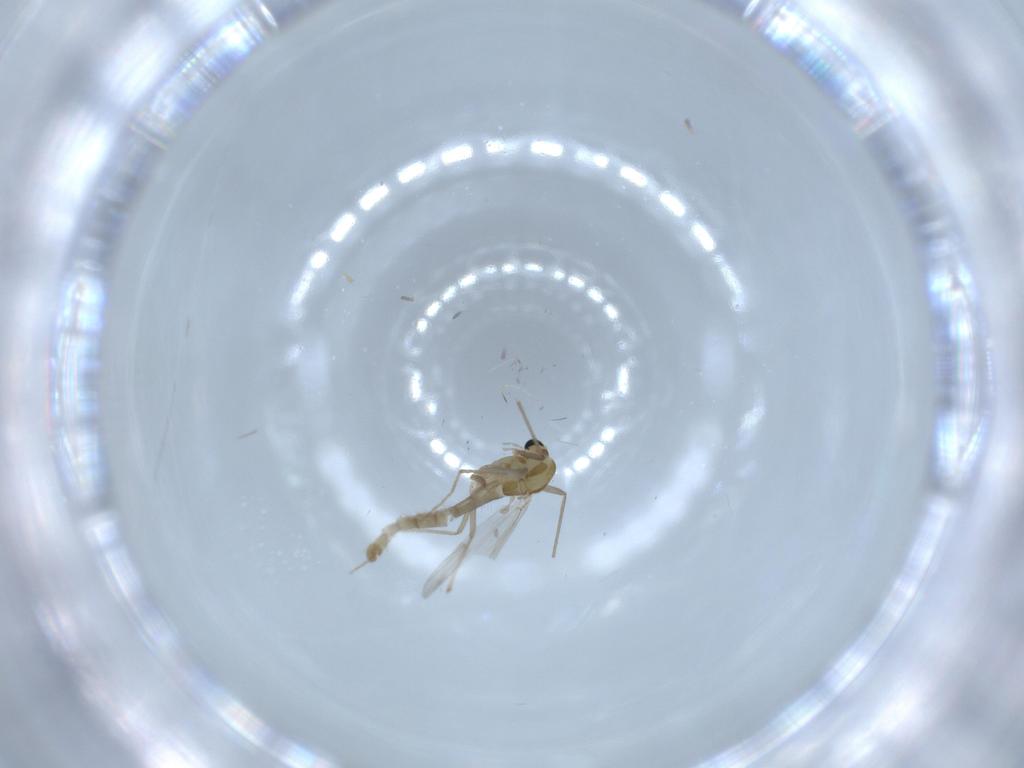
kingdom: Animalia
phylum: Arthropoda
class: Insecta
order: Diptera
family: Chironomidae
